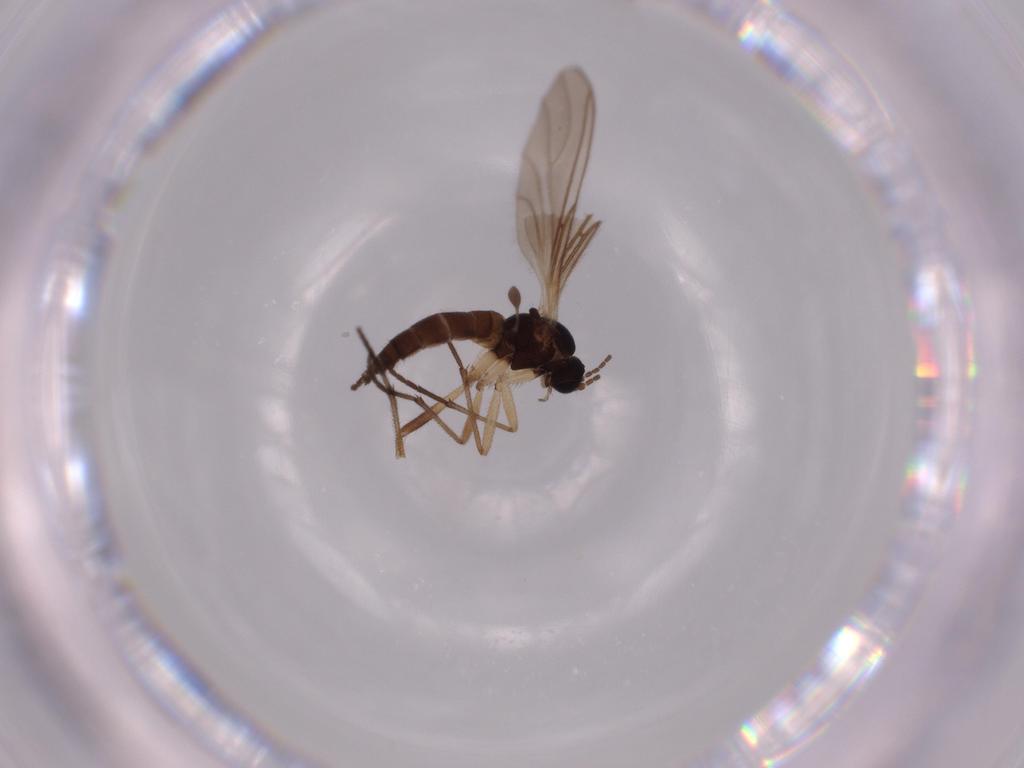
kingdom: Animalia
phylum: Arthropoda
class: Insecta
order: Diptera
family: Sciaridae
